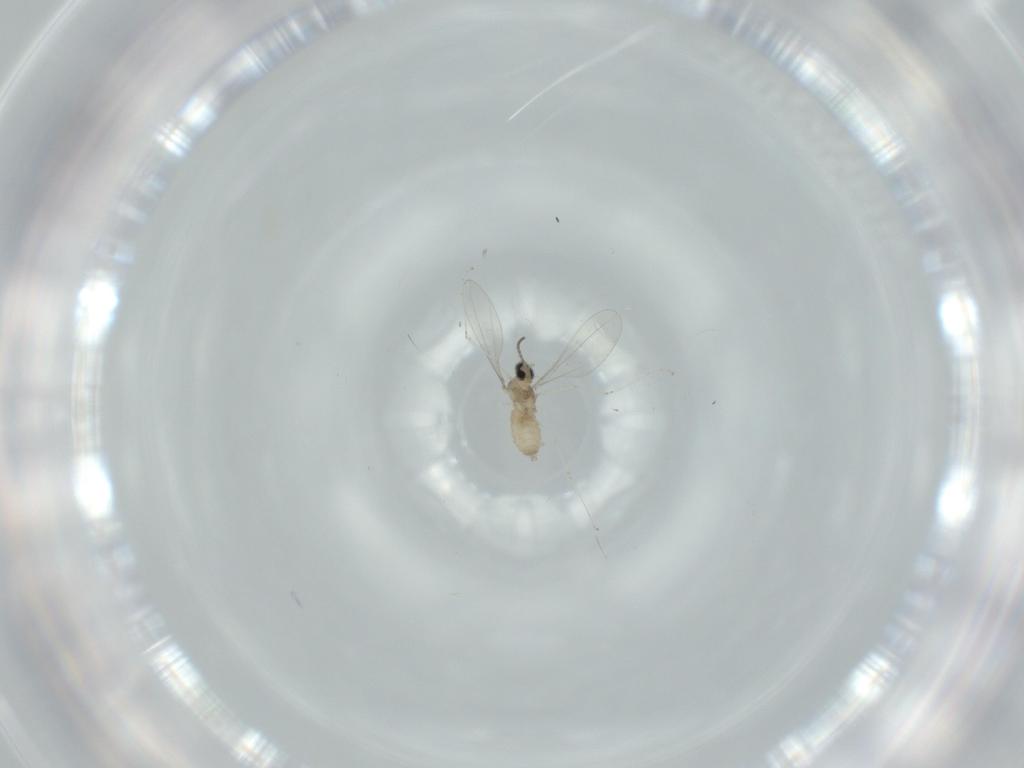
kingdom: Animalia
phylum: Arthropoda
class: Insecta
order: Diptera
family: Cecidomyiidae
